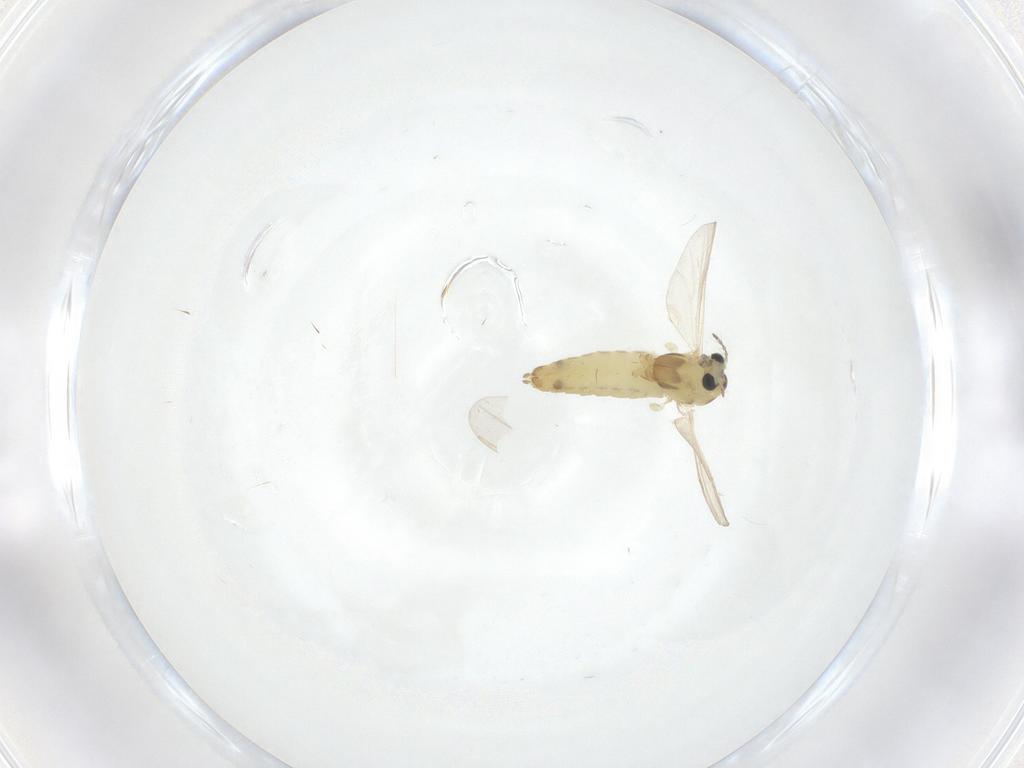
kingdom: Animalia
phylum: Arthropoda
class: Insecta
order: Diptera
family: Chironomidae
